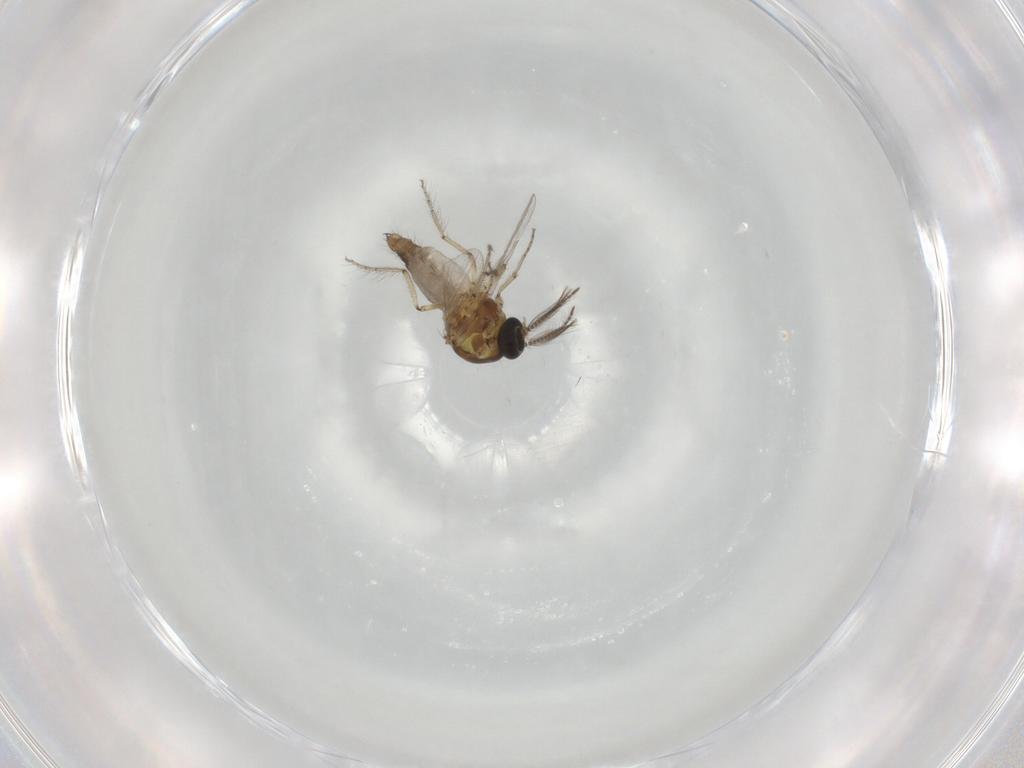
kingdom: Animalia
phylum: Arthropoda
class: Insecta
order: Diptera
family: Ceratopogonidae
